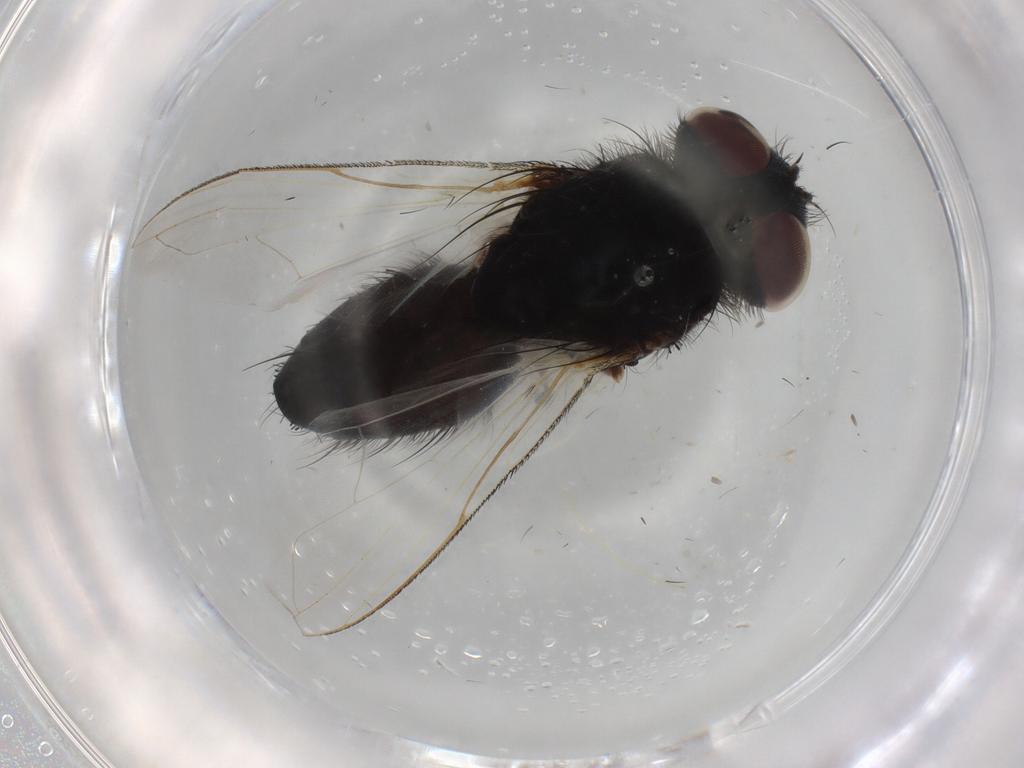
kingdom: Animalia
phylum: Arthropoda
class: Insecta
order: Diptera
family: Tachinidae
